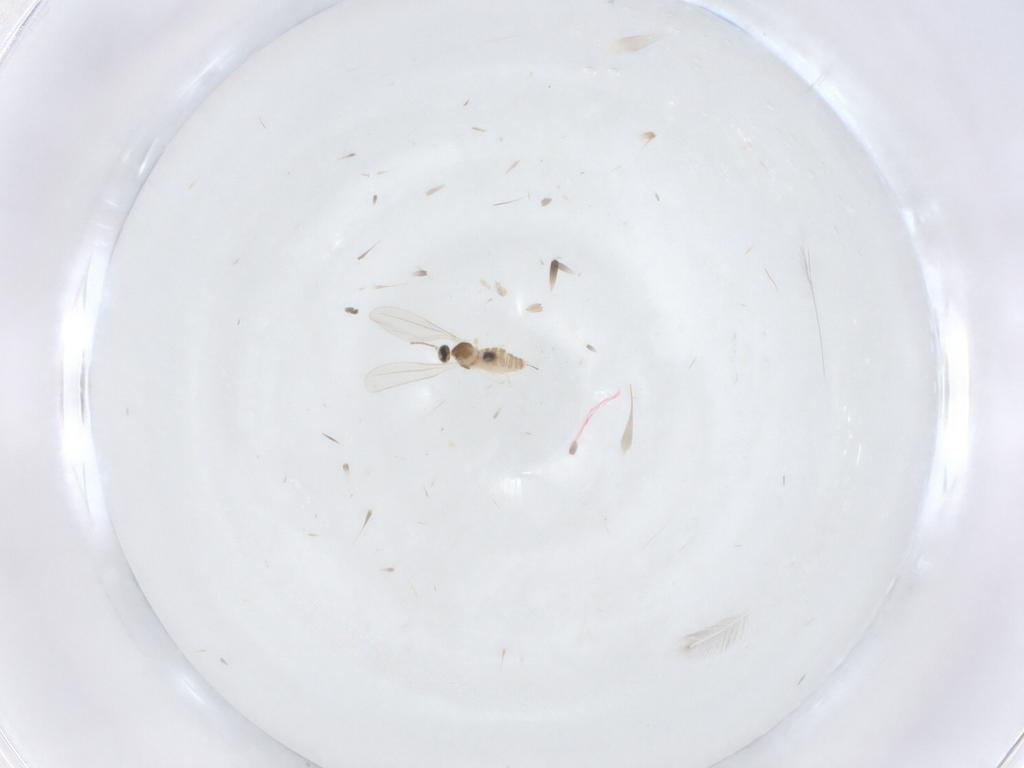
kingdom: Animalia
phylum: Arthropoda
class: Insecta
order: Diptera
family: Cecidomyiidae
